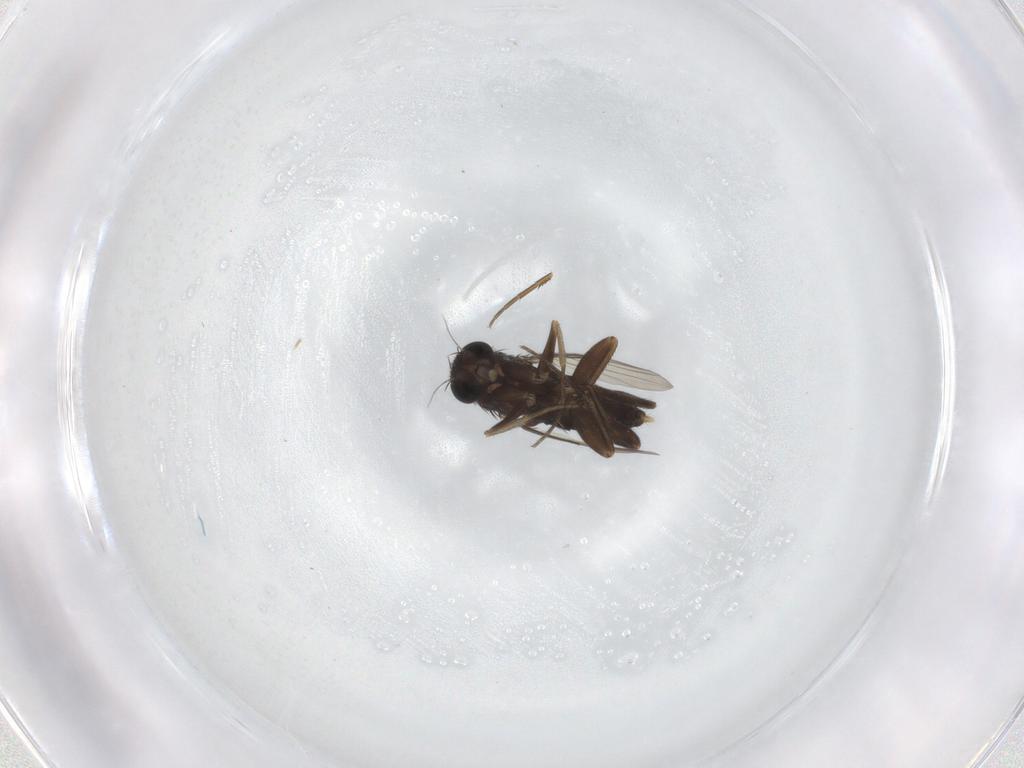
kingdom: Animalia
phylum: Arthropoda
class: Insecta
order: Diptera
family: Phoridae
